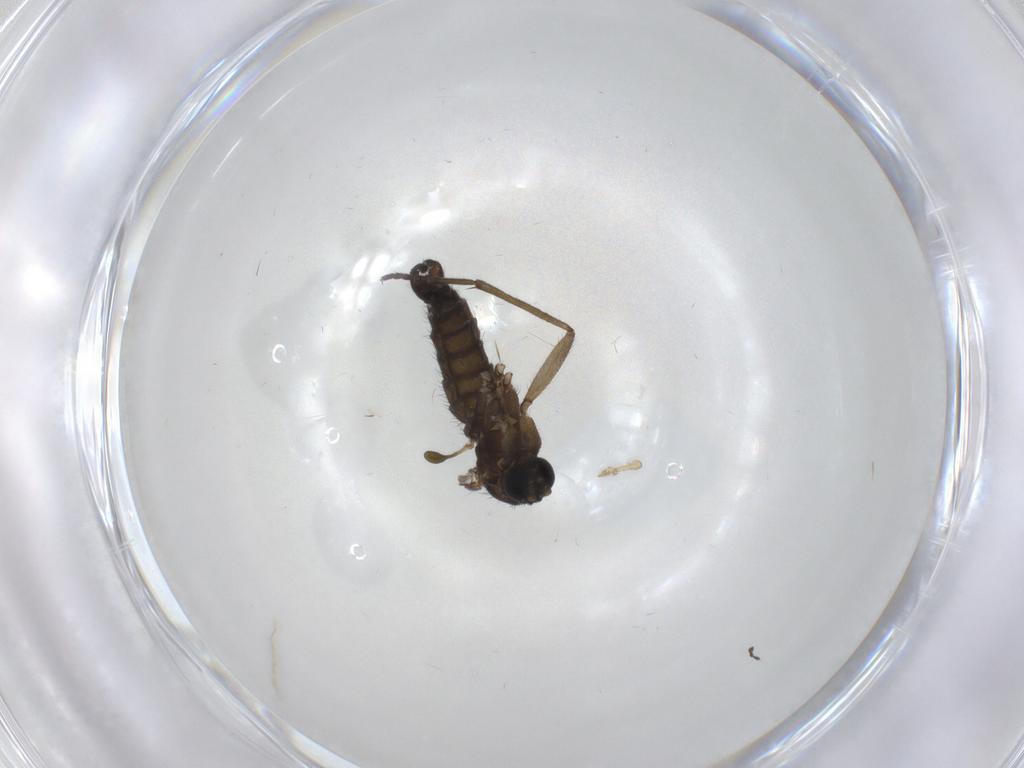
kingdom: Animalia
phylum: Arthropoda
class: Insecta
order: Diptera
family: Sciaridae
